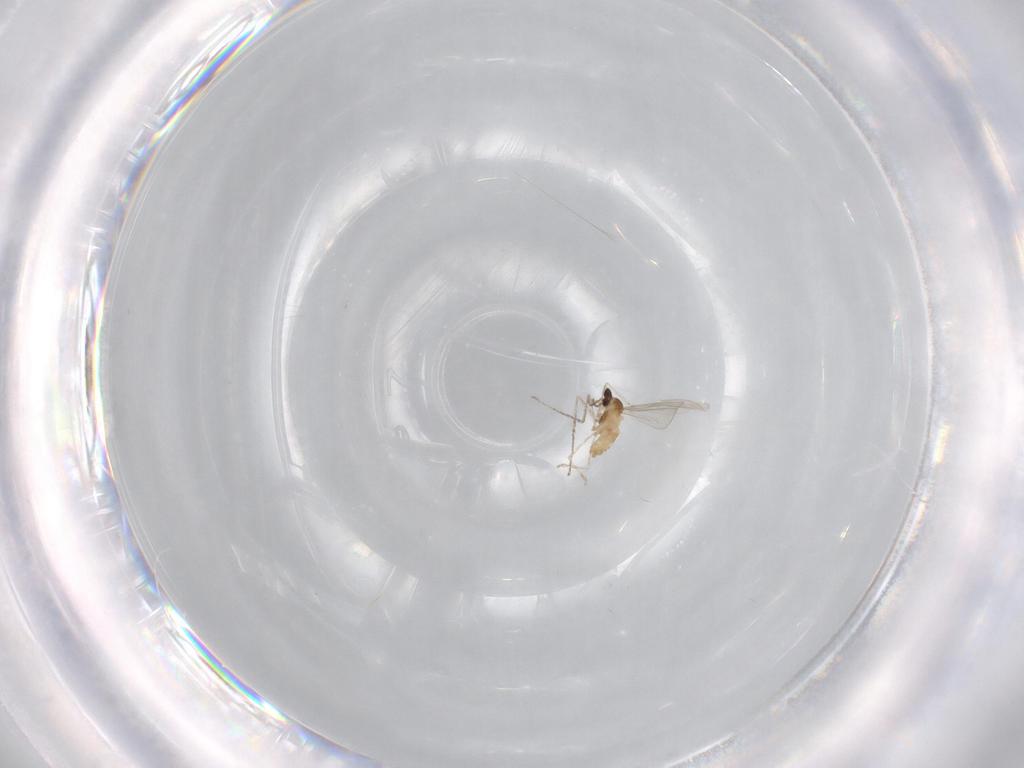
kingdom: Animalia
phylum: Arthropoda
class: Insecta
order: Diptera
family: Cecidomyiidae
